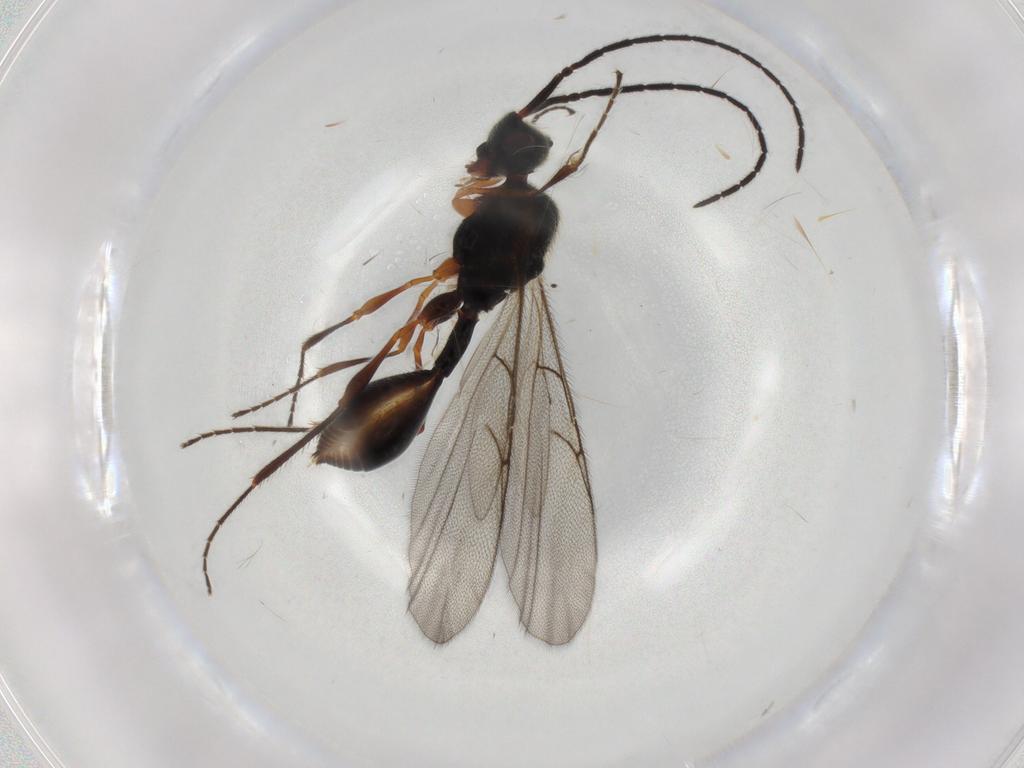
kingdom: Animalia
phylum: Arthropoda
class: Insecta
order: Hymenoptera
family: Diapriidae
